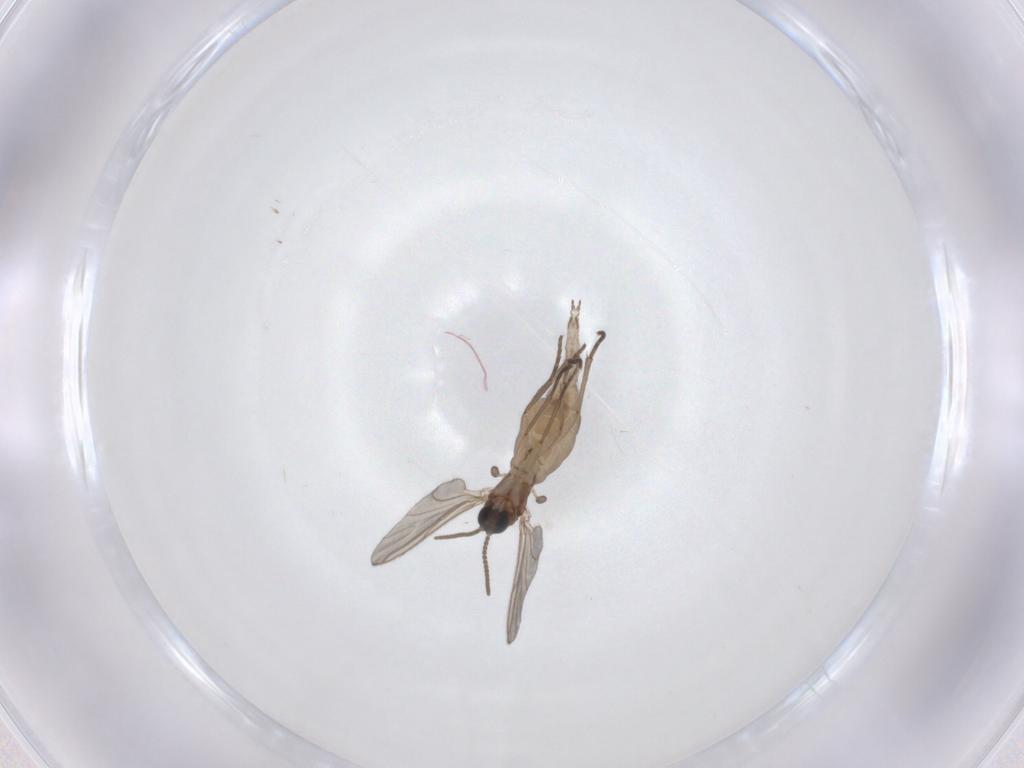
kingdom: Animalia
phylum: Arthropoda
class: Insecta
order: Diptera
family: Sciaridae
